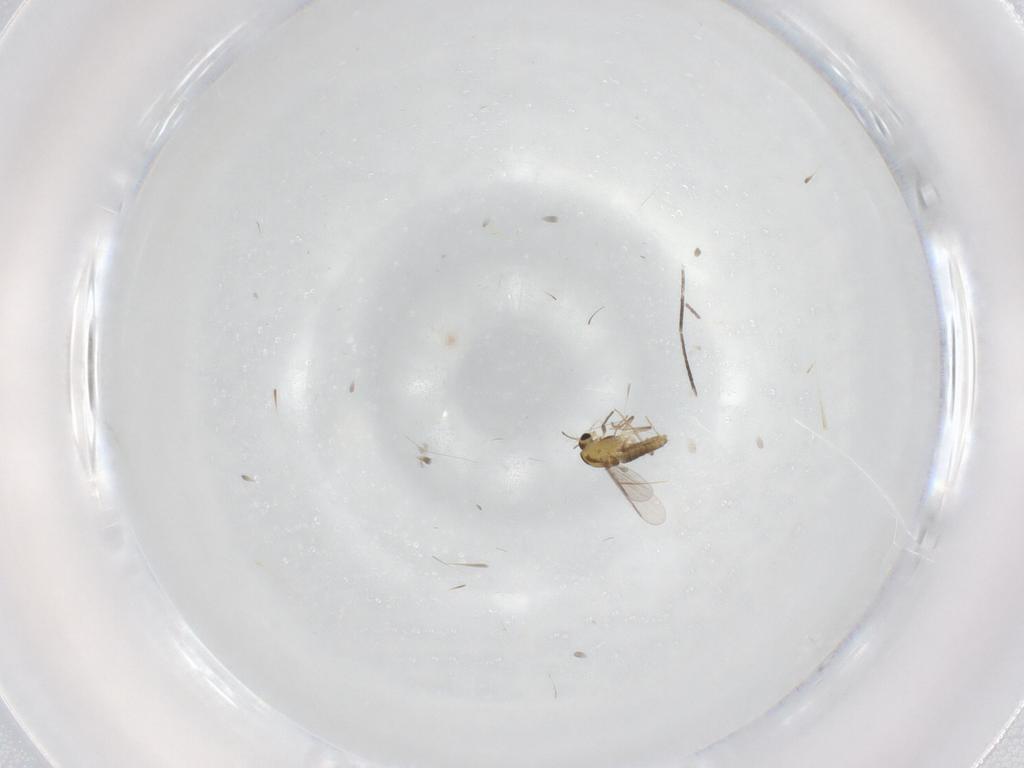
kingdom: Animalia
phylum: Arthropoda
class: Insecta
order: Diptera
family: Chironomidae
